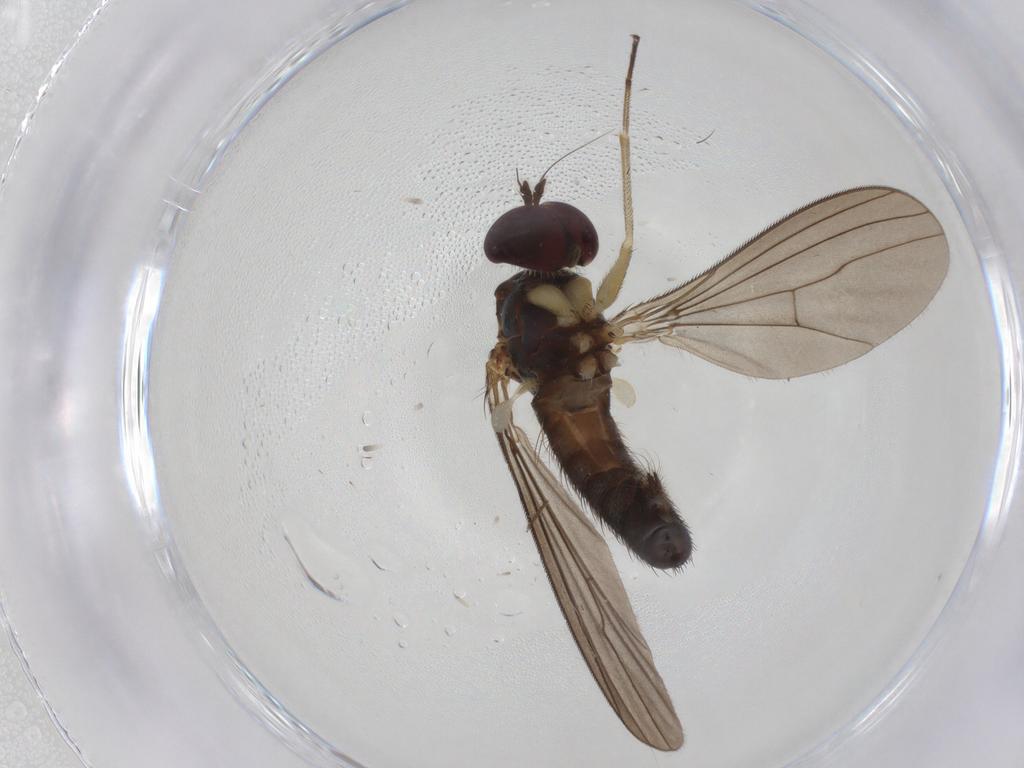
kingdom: Animalia
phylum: Arthropoda
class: Insecta
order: Diptera
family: Dolichopodidae
